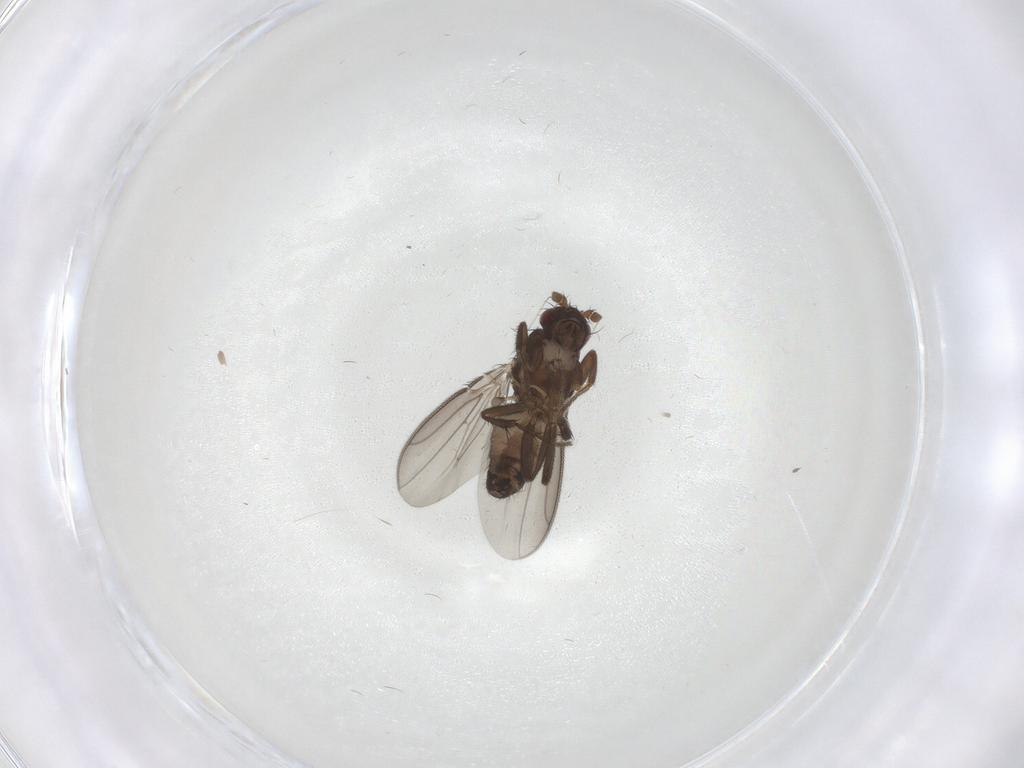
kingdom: Animalia
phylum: Arthropoda
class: Insecta
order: Diptera
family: Sphaeroceridae
